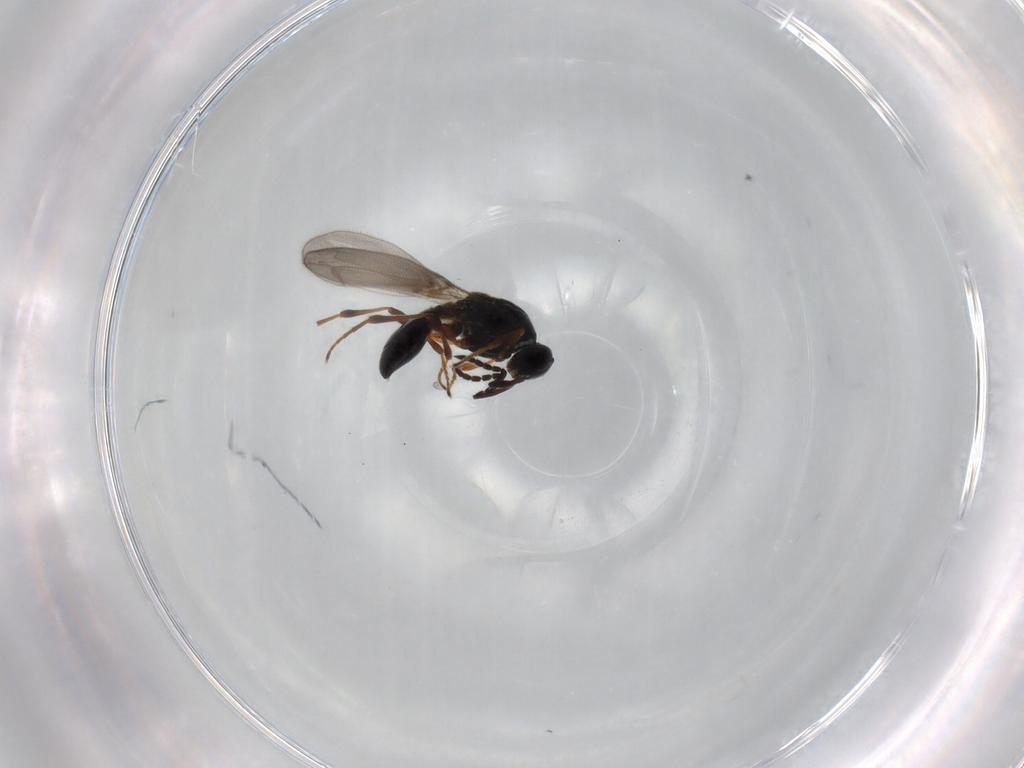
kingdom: Animalia
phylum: Arthropoda
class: Insecta
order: Hymenoptera
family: Platygastridae
